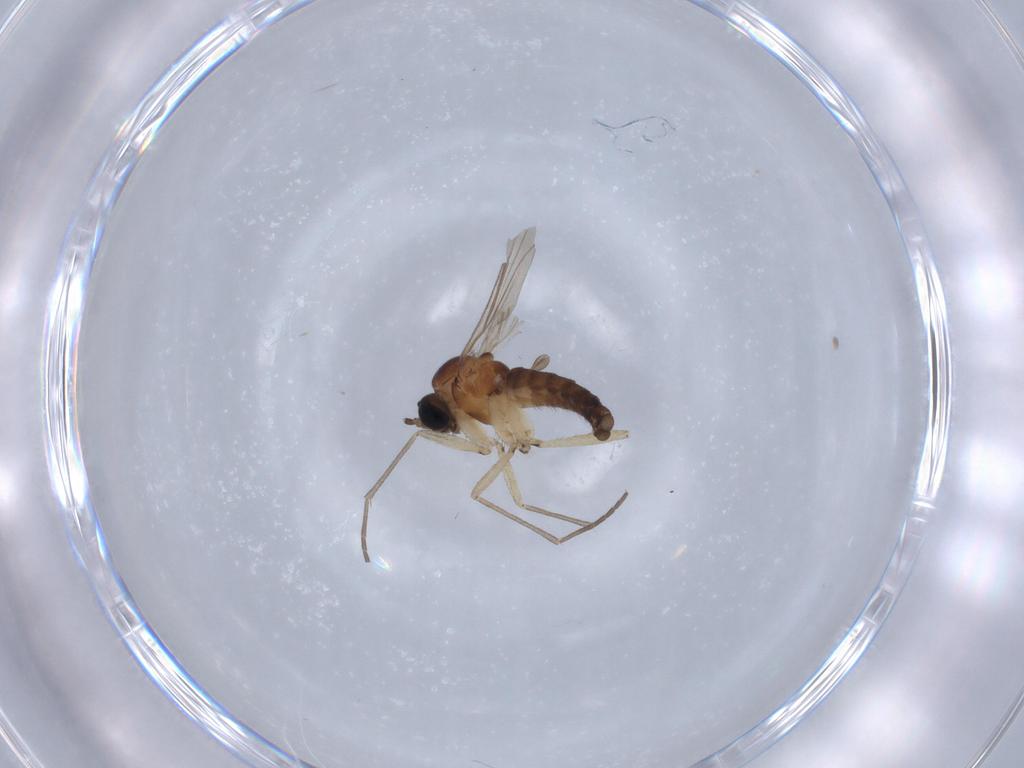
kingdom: Animalia
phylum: Arthropoda
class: Insecta
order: Diptera
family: Sciaridae
